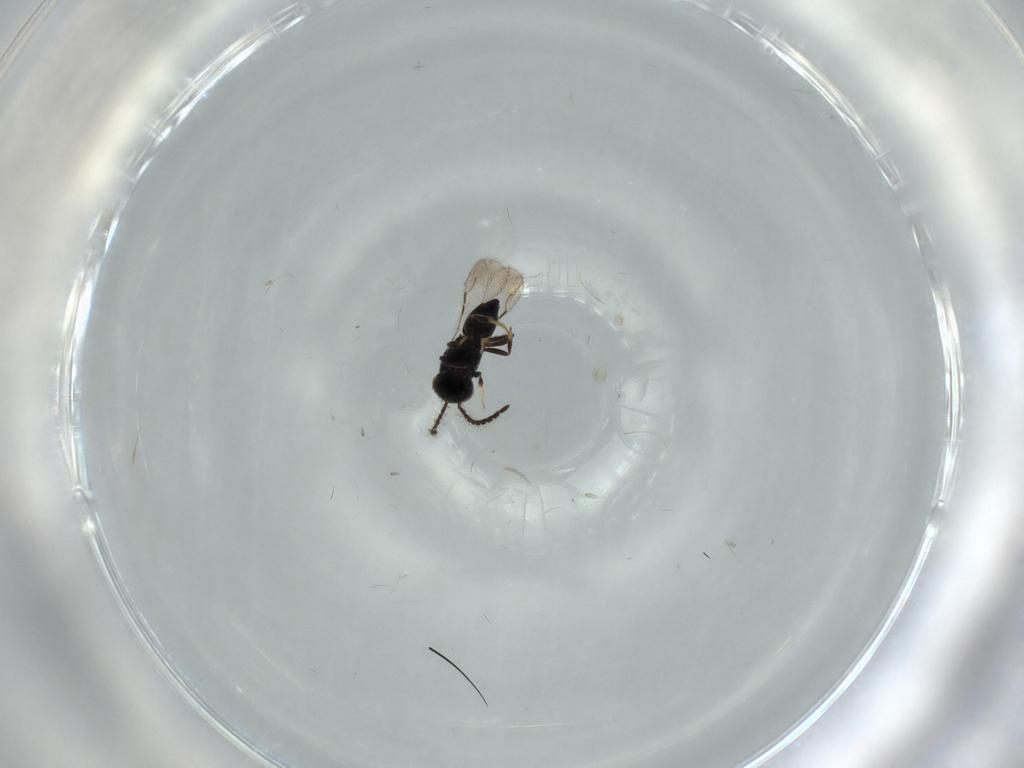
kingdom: Animalia
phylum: Arthropoda
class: Insecta
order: Hymenoptera
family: Ceraphronidae
